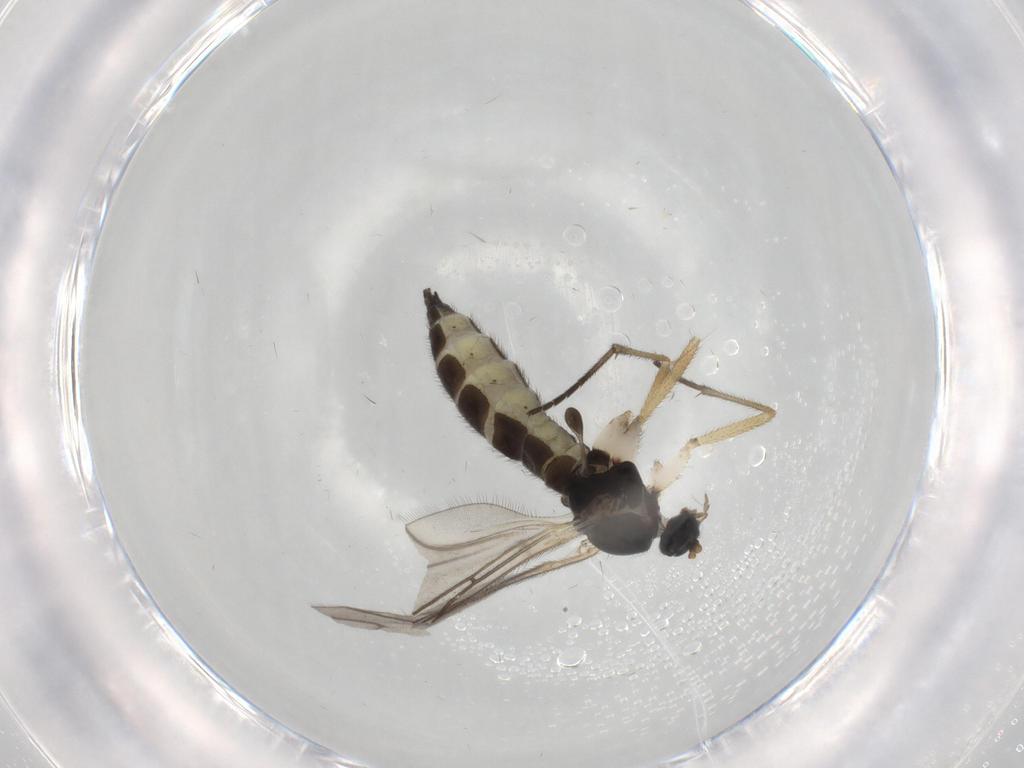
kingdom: Animalia
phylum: Arthropoda
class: Insecta
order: Diptera
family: Sciaridae
